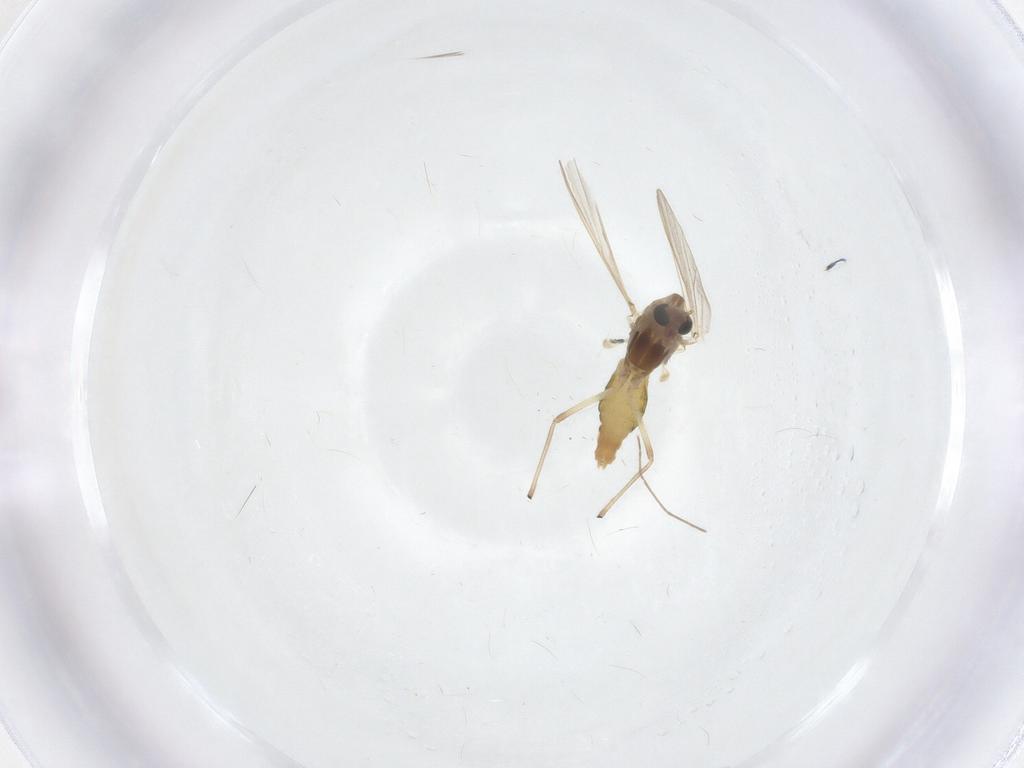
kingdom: Animalia
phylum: Arthropoda
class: Insecta
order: Diptera
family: Chironomidae
